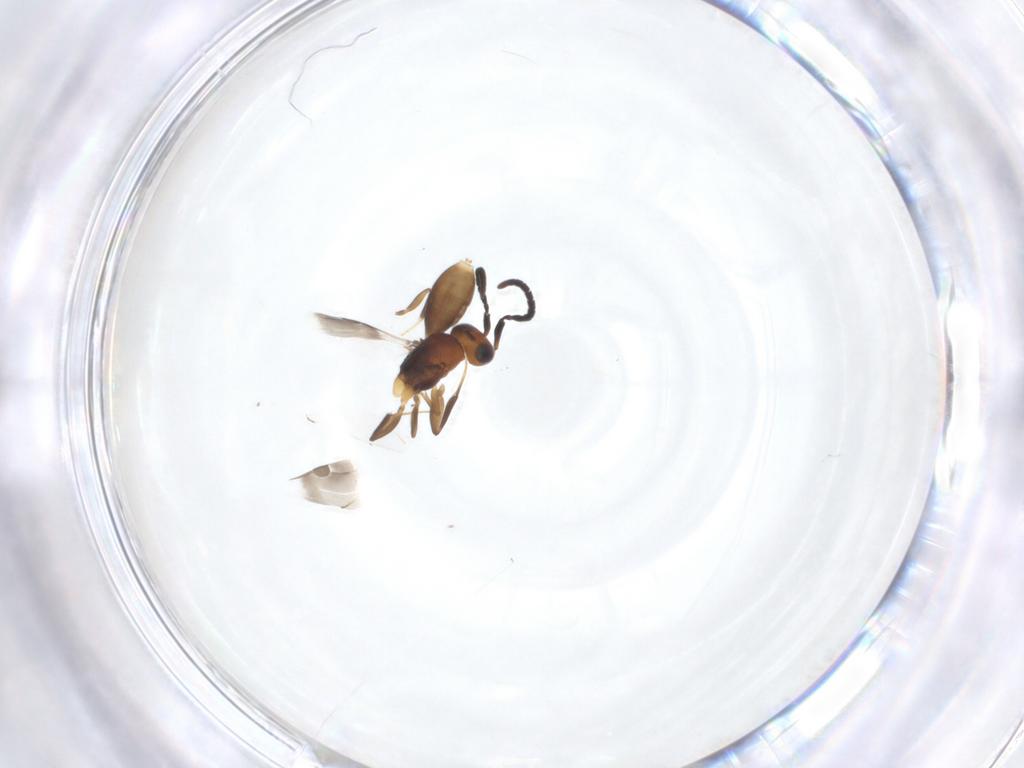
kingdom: Animalia
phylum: Arthropoda
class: Insecta
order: Hymenoptera
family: Megaspilidae
